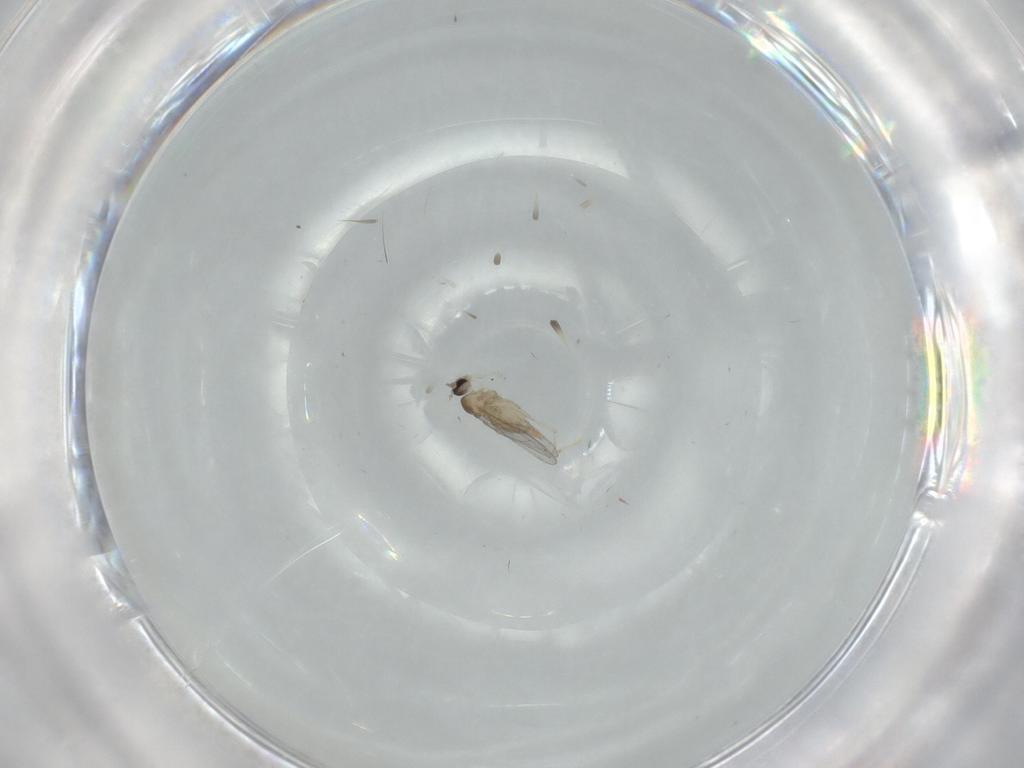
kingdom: Animalia
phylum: Arthropoda
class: Insecta
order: Diptera
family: Cecidomyiidae
